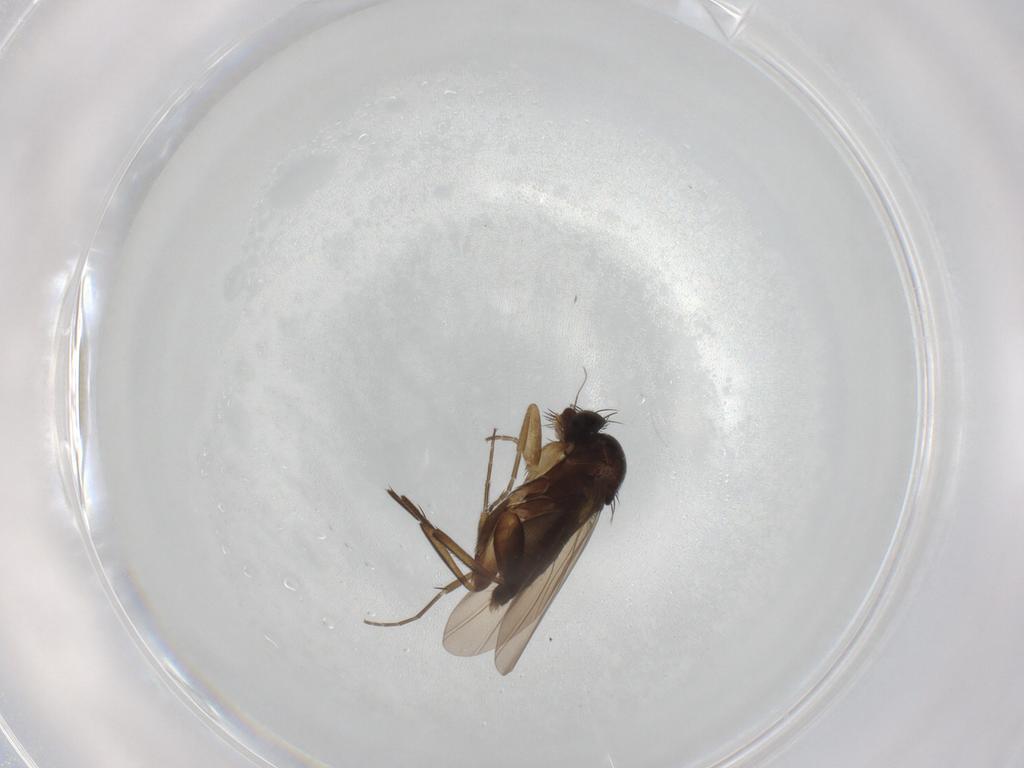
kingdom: Animalia
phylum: Arthropoda
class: Insecta
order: Diptera
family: Phoridae
